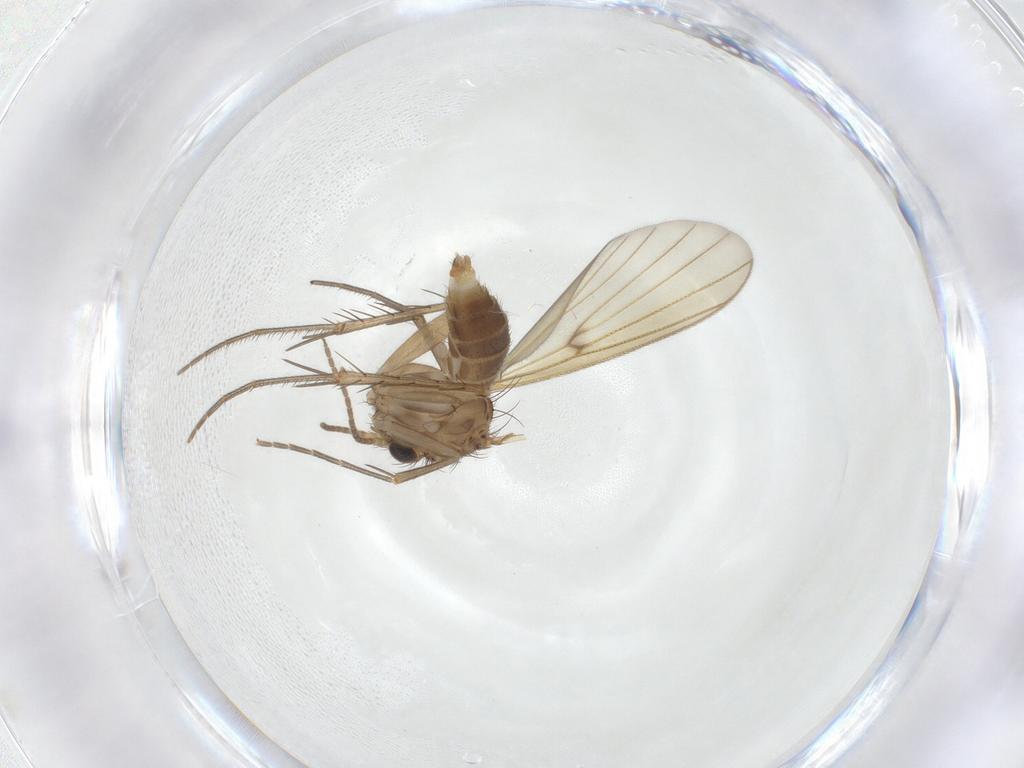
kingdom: Animalia
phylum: Arthropoda
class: Insecta
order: Diptera
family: Mycetophilidae
